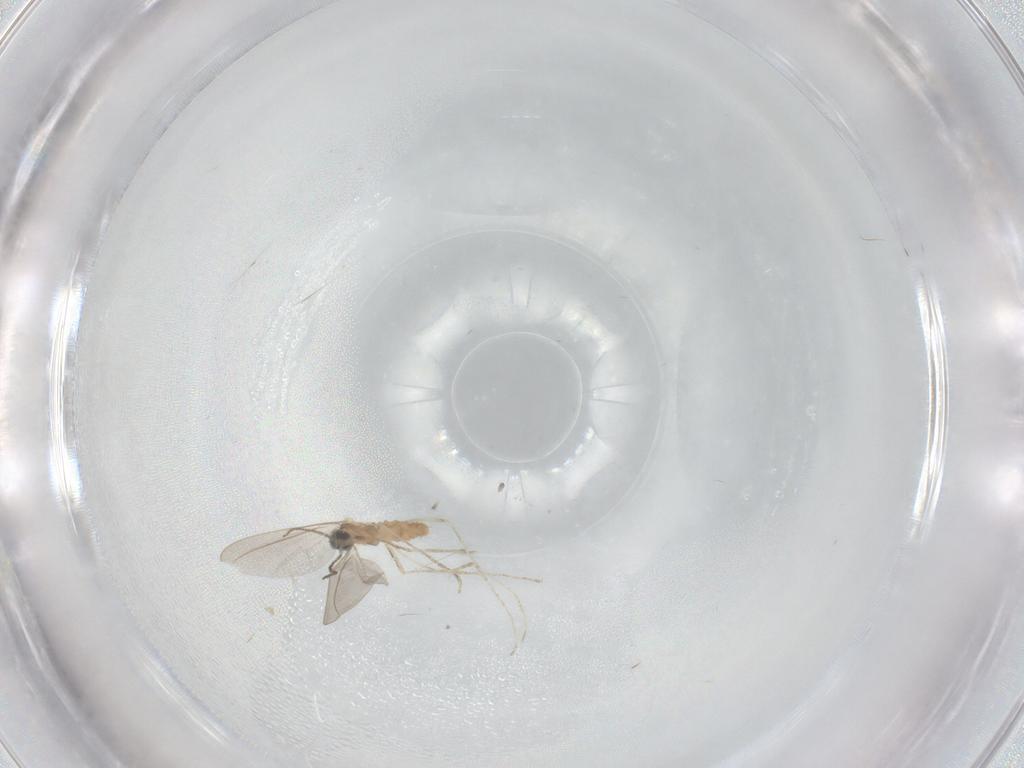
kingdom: Animalia
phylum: Arthropoda
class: Insecta
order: Diptera
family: Cecidomyiidae
